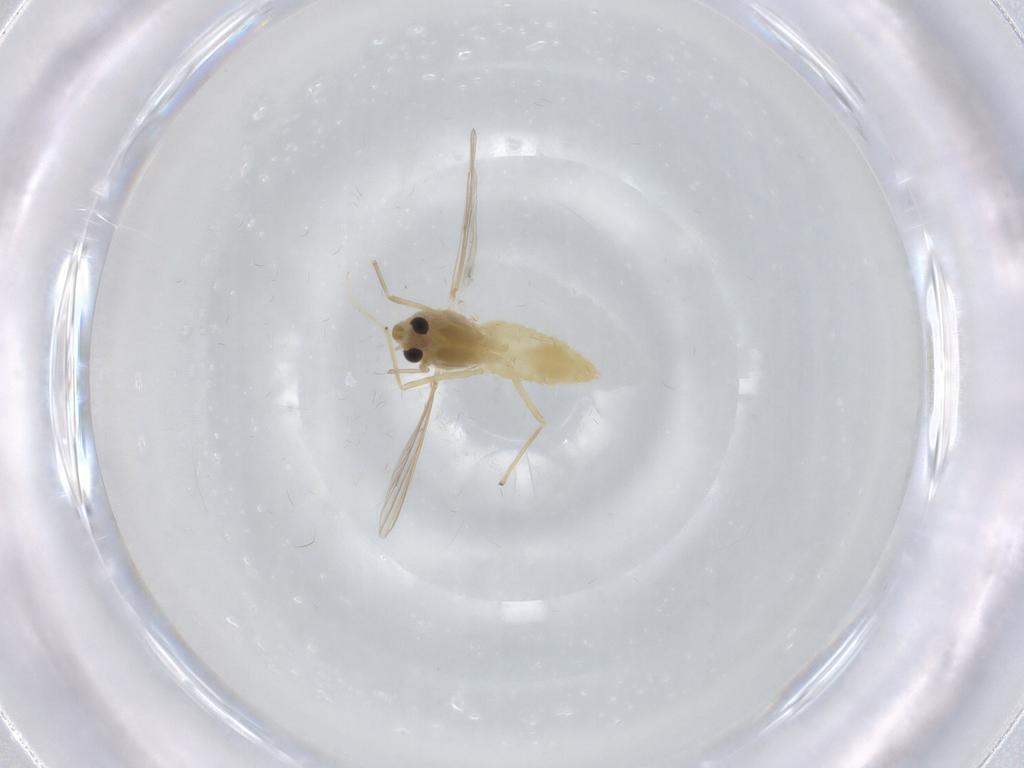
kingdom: Animalia
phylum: Arthropoda
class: Insecta
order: Diptera
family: Chironomidae
